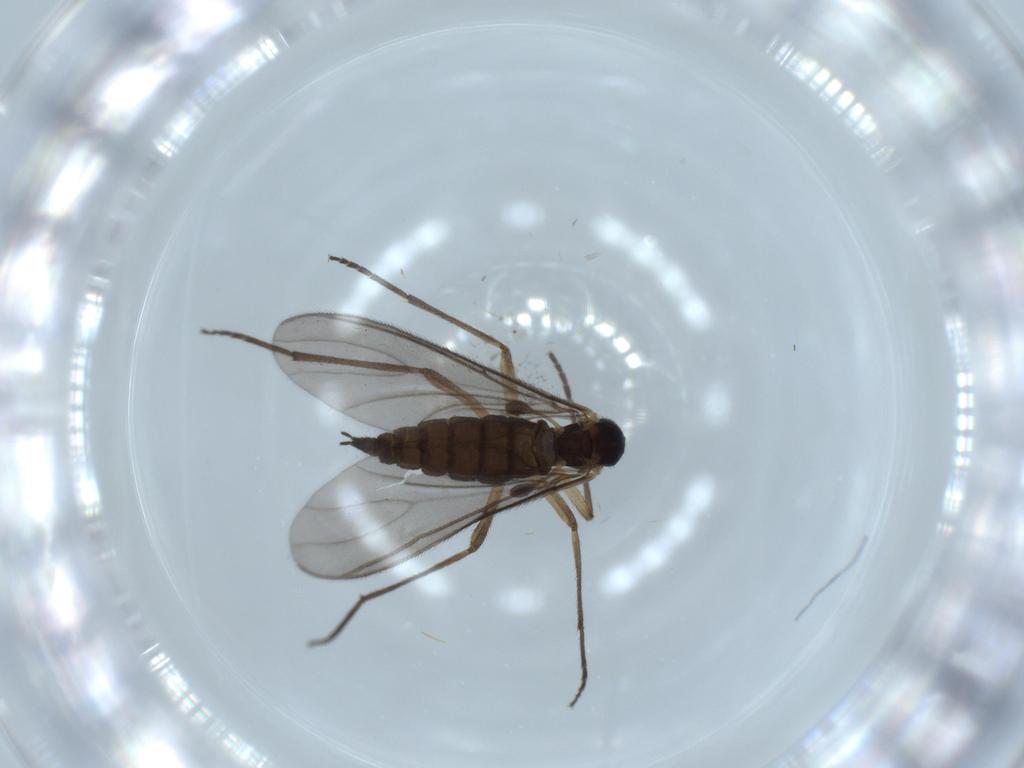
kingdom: Animalia
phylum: Arthropoda
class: Insecta
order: Diptera
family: Sciaridae
